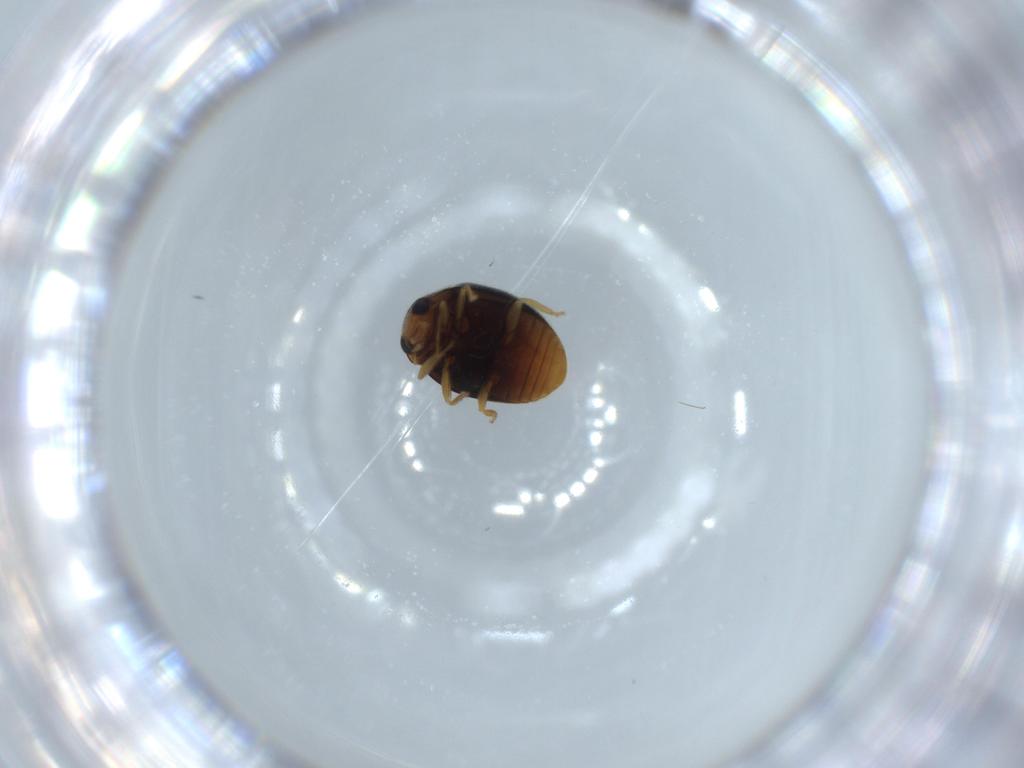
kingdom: Animalia
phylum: Arthropoda
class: Insecta
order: Coleoptera
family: Coccinellidae
